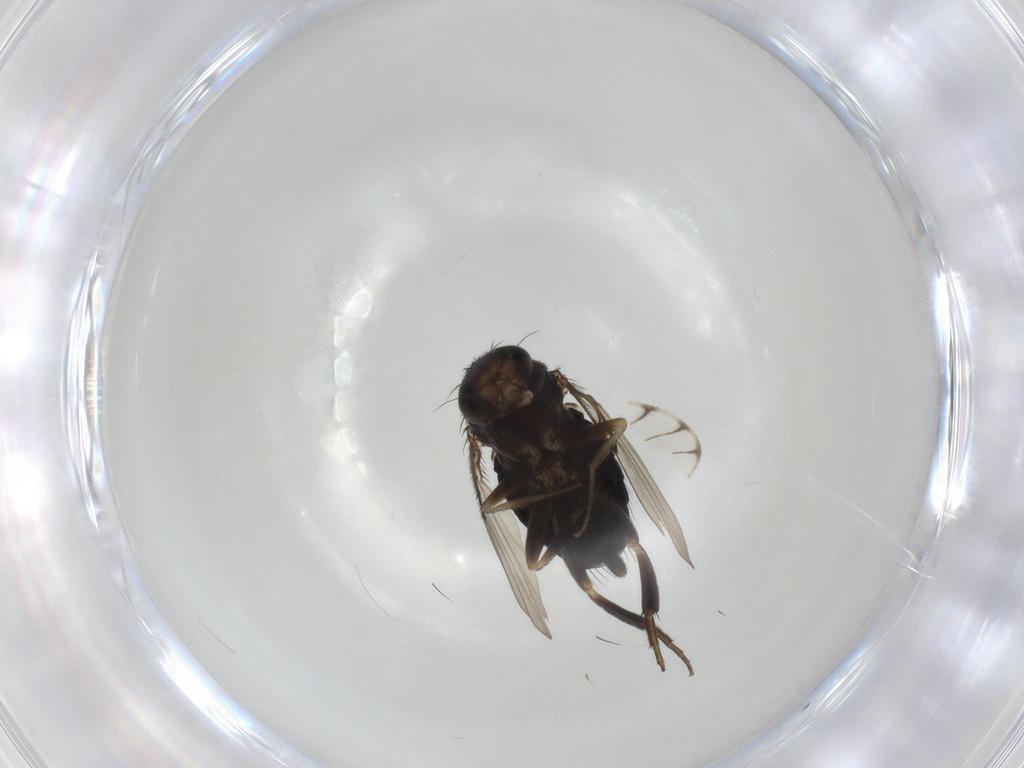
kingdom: Animalia
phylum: Arthropoda
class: Insecta
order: Diptera
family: Phoridae
